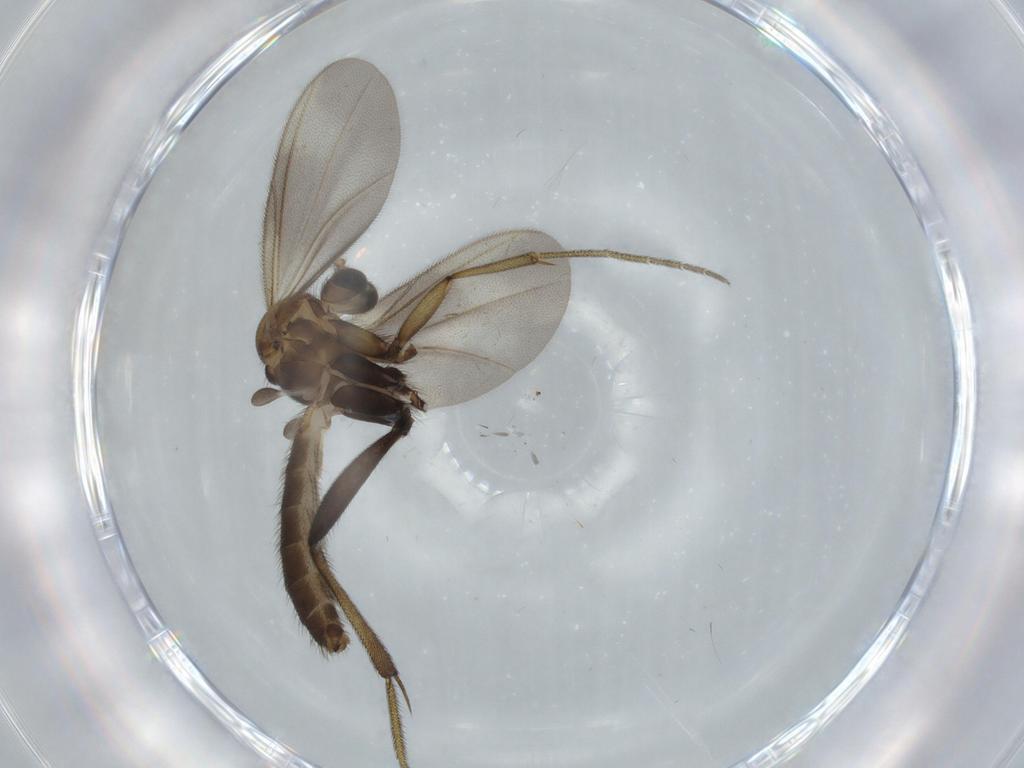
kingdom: Animalia
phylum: Arthropoda
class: Insecta
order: Diptera
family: Mycetophilidae
